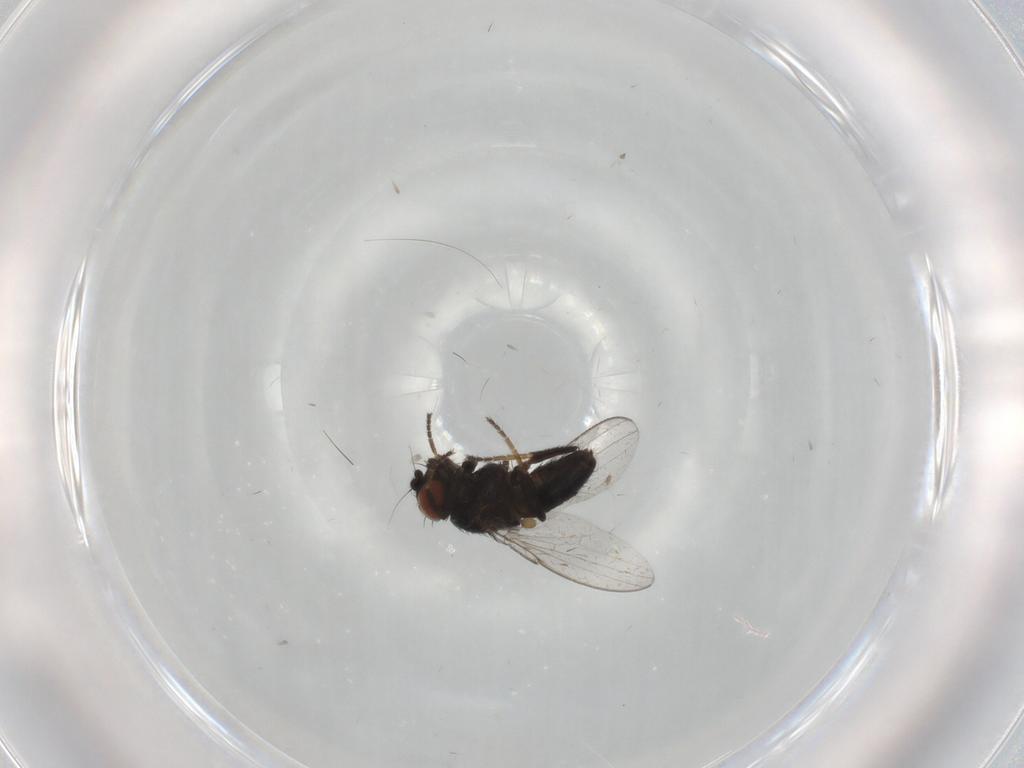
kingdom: Animalia
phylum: Arthropoda
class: Insecta
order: Diptera
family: Milichiidae
